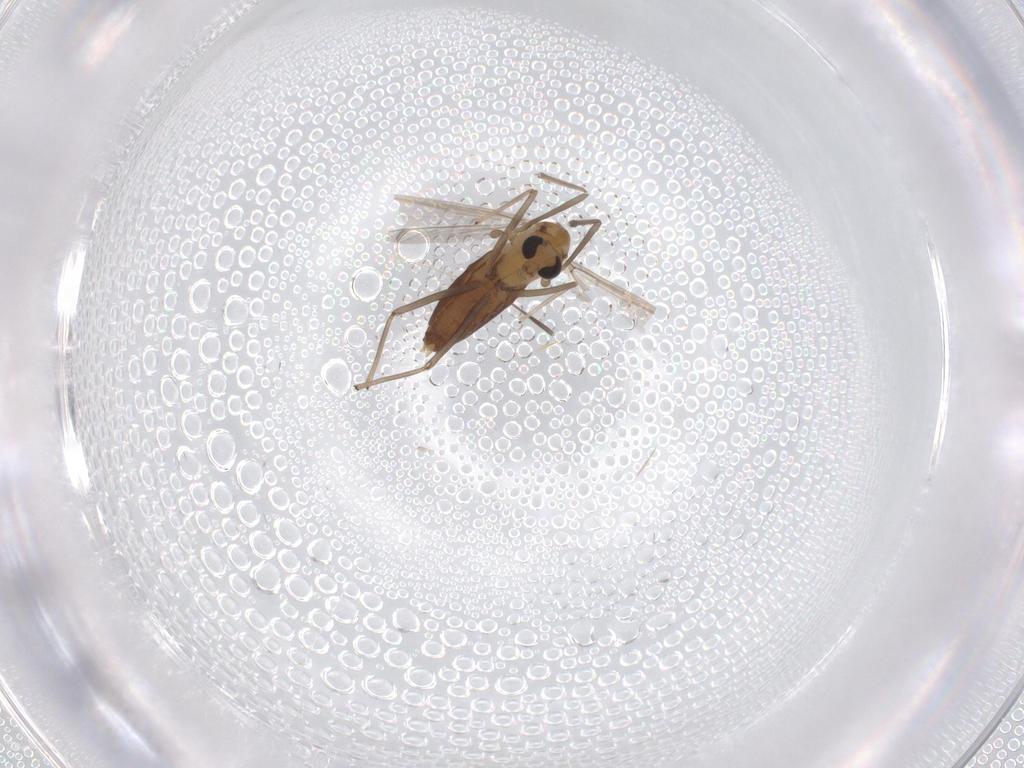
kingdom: Animalia
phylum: Arthropoda
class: Insecta
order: Diptera
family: Chironomidae
